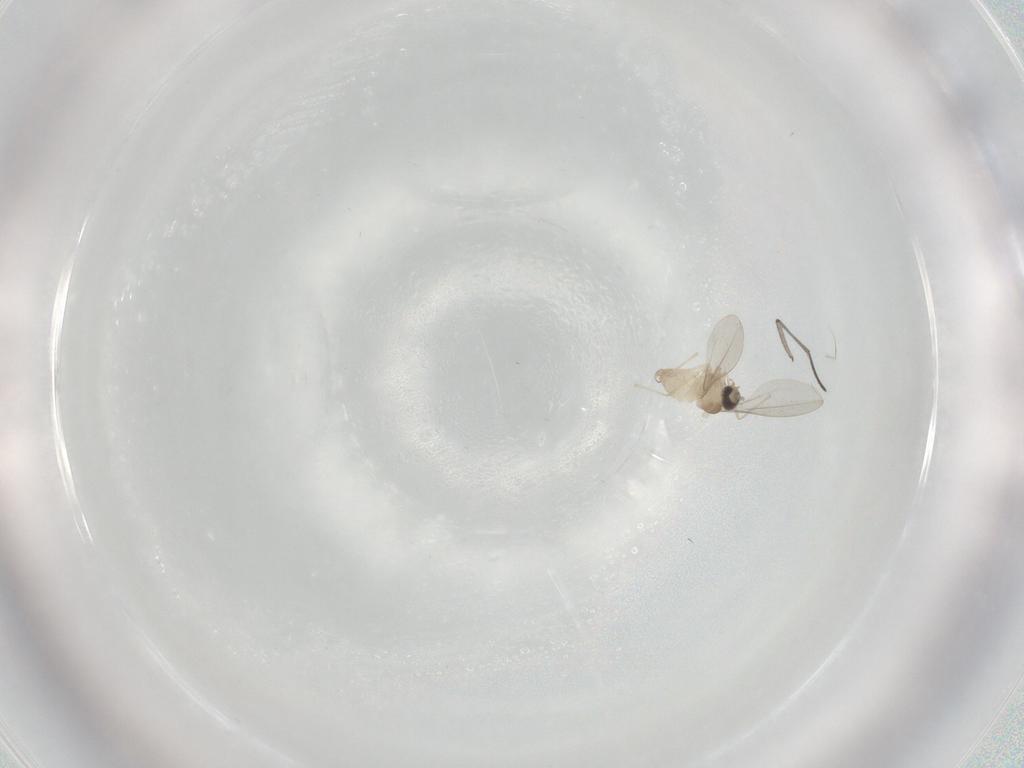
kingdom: Animalia
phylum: Arthropoda
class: Insecta
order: Diptera
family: Cecidomyiidae
